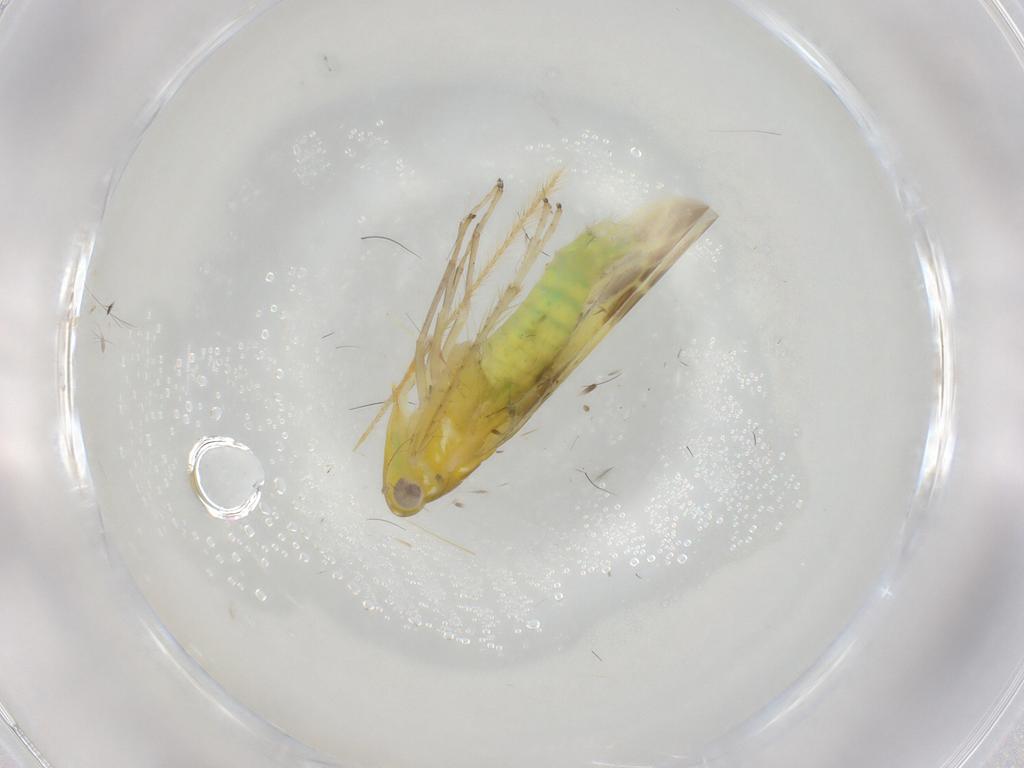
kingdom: Animalia
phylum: Arthropoda
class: Insecta
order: Hemiptera
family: Cicadellidae
